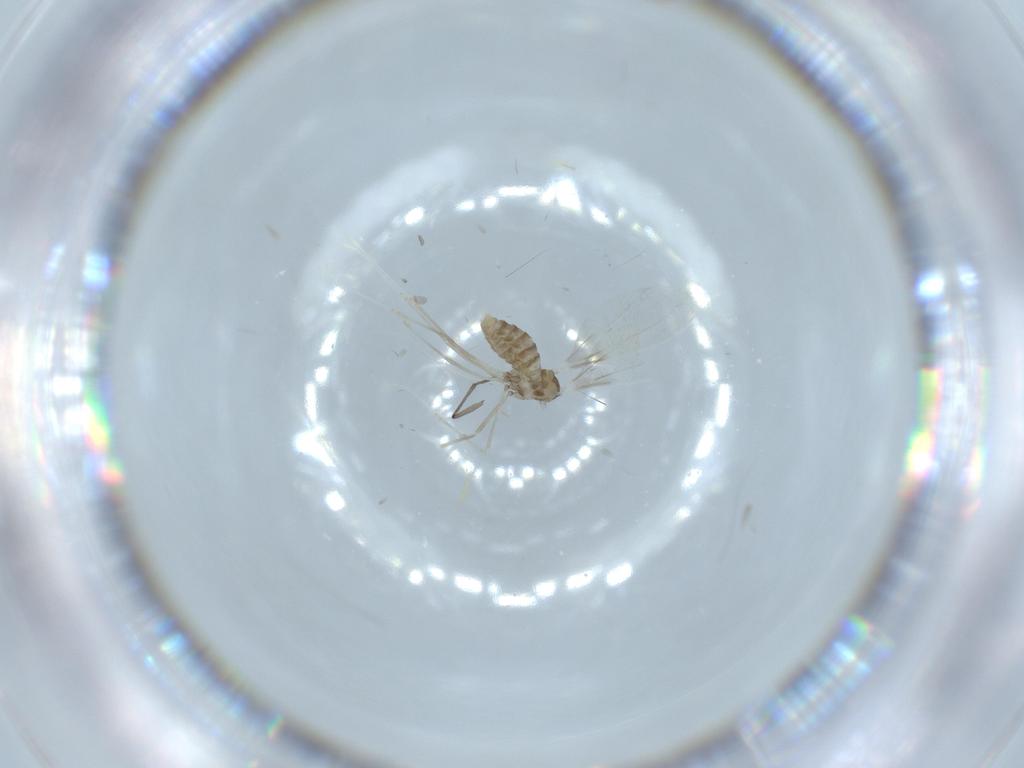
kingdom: Animalia
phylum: Arthropoda
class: Insecta
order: Diptera
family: Cecidomyiidae
